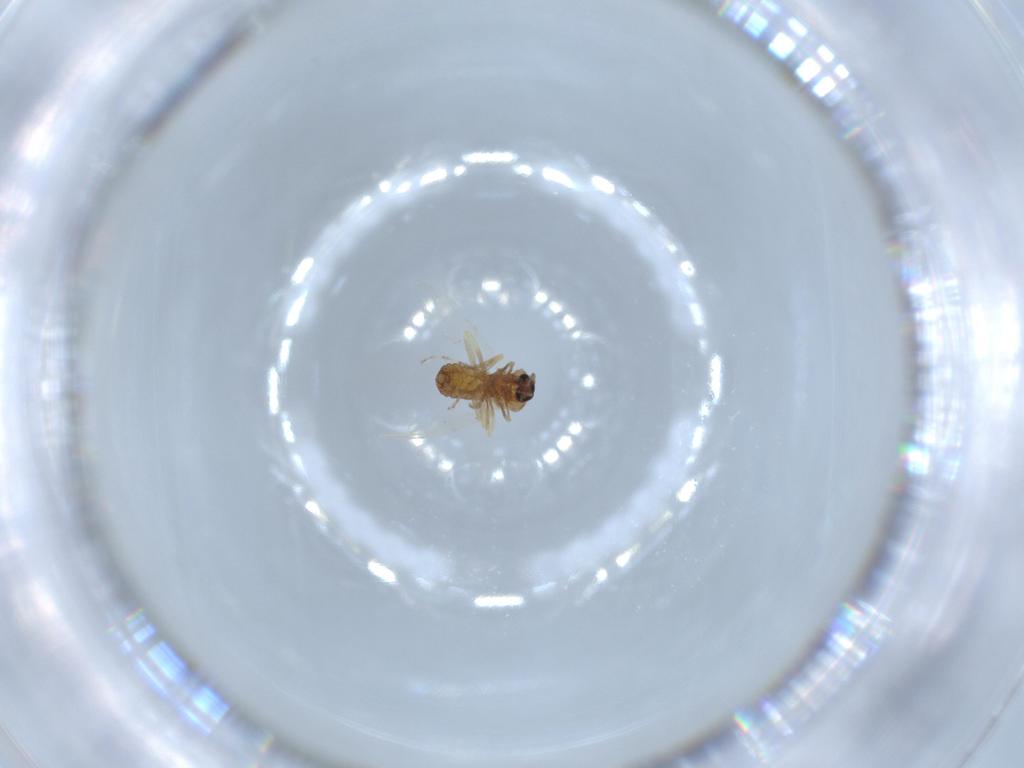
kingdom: Animalia
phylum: Arthropoda
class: Insecta
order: Diptera
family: Ceratopogonidae
